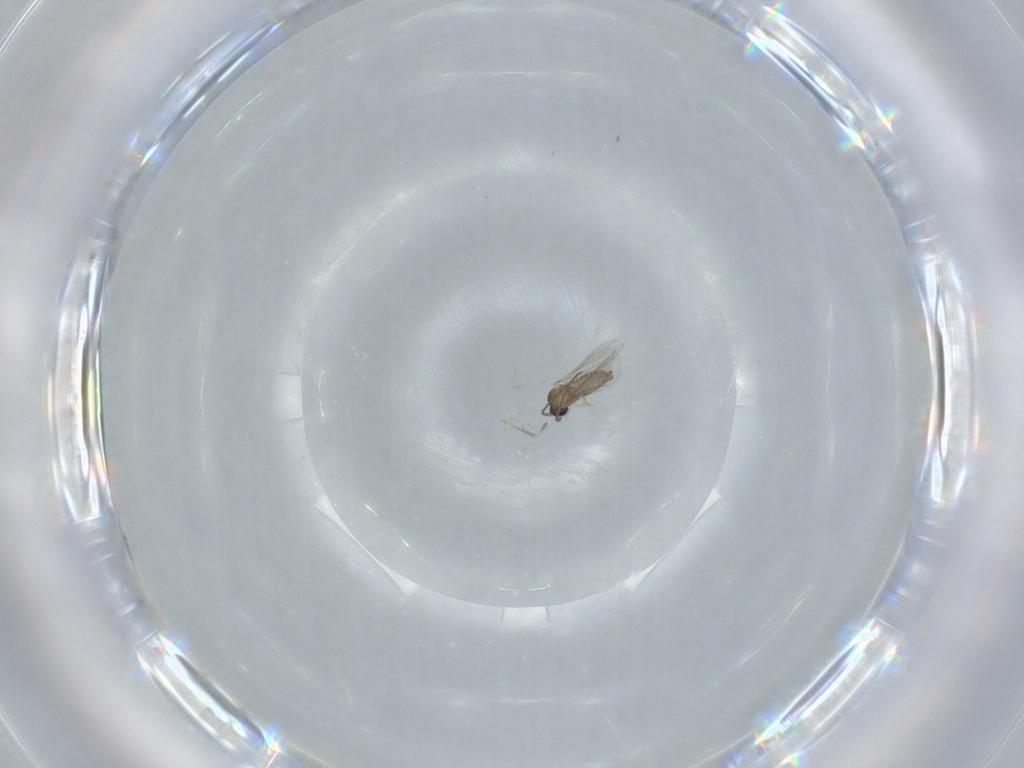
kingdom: Animalia
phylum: Arthropoda
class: Insecta
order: Diptera
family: Cecidomyiidae
